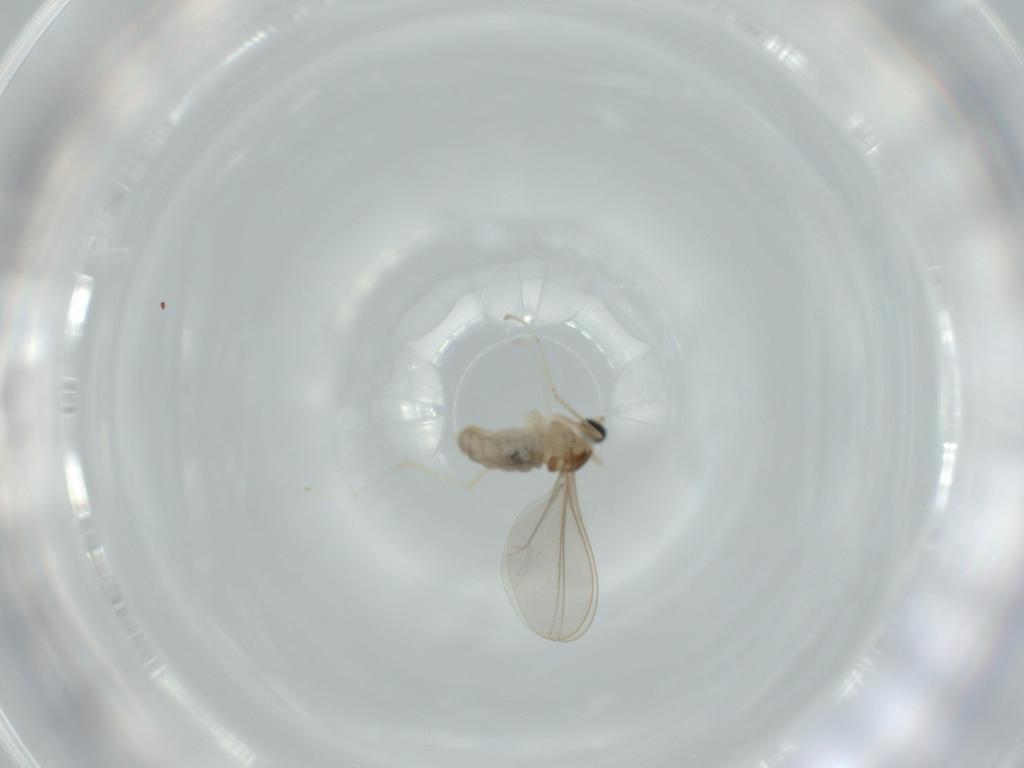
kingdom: Animalia
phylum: Arthropoda
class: Insecta
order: Diptera
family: Cecidomyiidae
